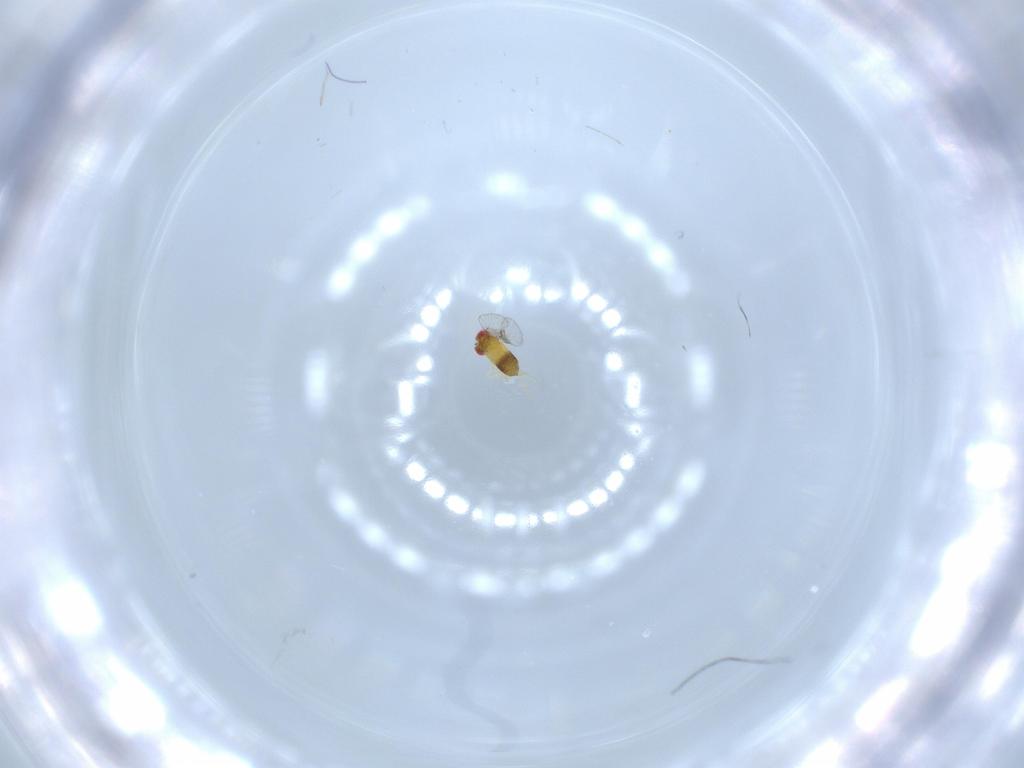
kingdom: Animalia
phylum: Arthropoda
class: Insecta
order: Hymenoptera
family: Trichogrammatidae
